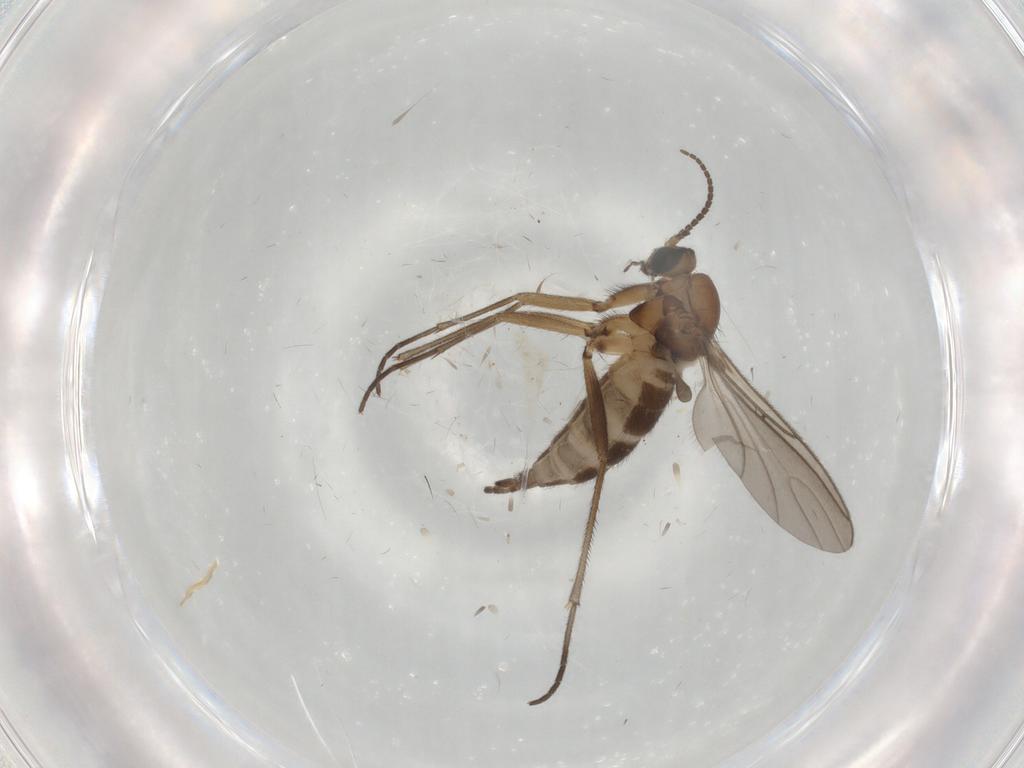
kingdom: Animalia
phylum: Arthropoda
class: Insecta
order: Diptera
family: Sciaridae
